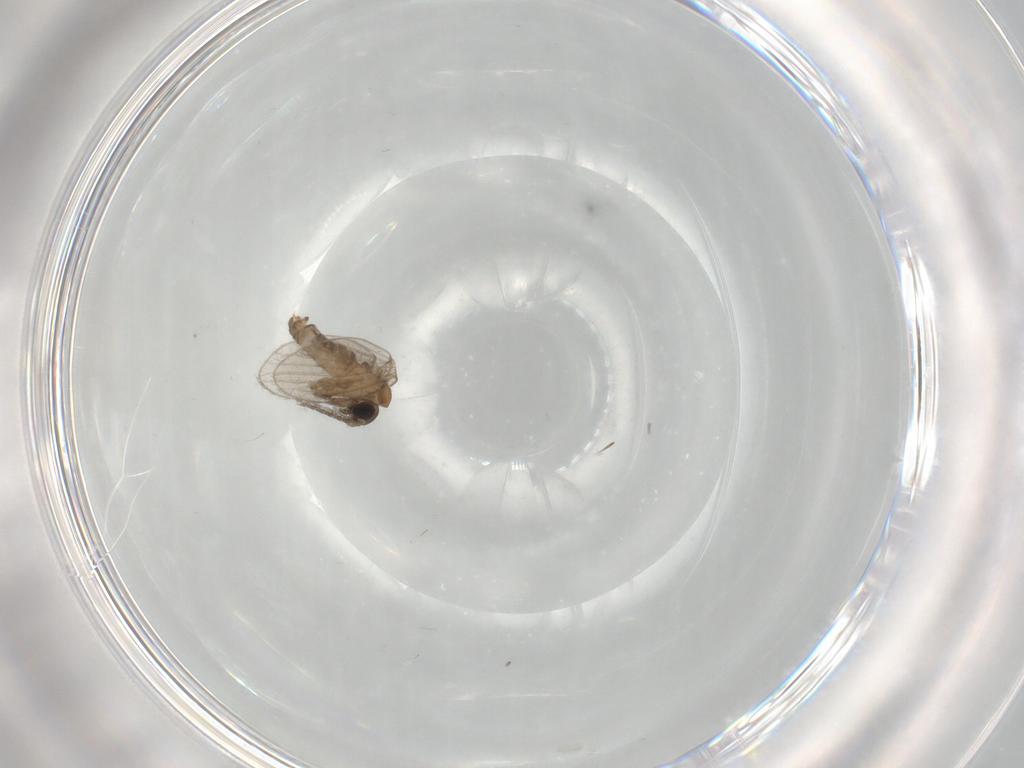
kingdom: Animalia
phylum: Arthropoda
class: Insecta
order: Diptera
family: Psychodidae
